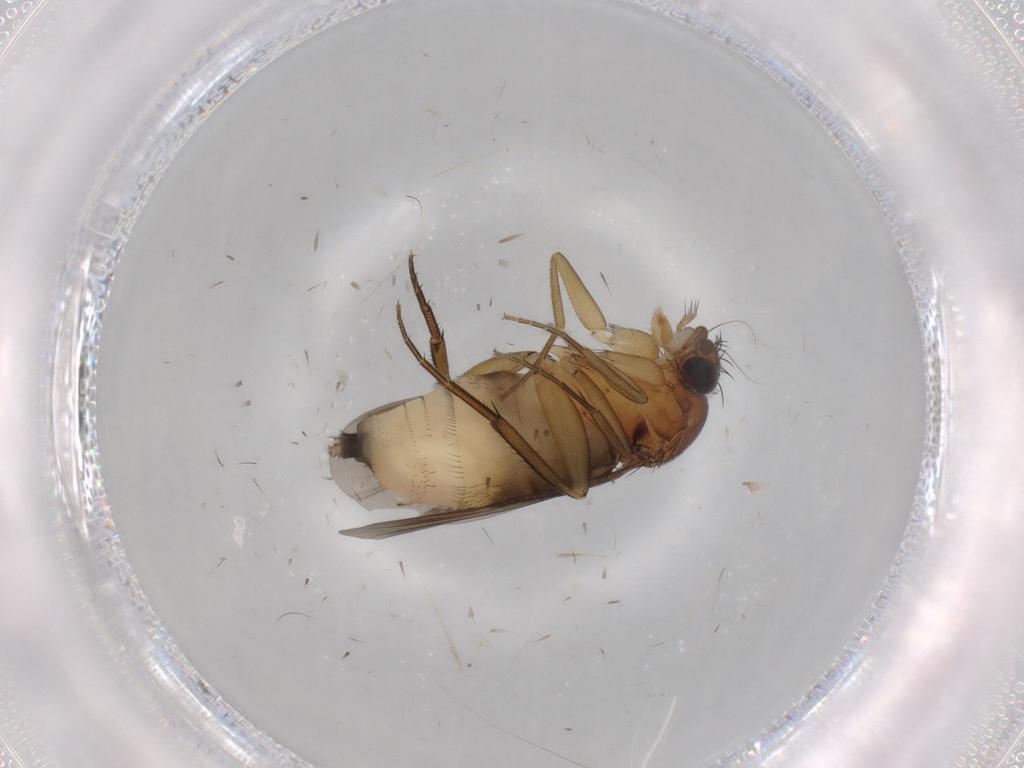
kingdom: Animalia
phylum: Arthropoda
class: Insecta
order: Diptera
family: Phoridae
